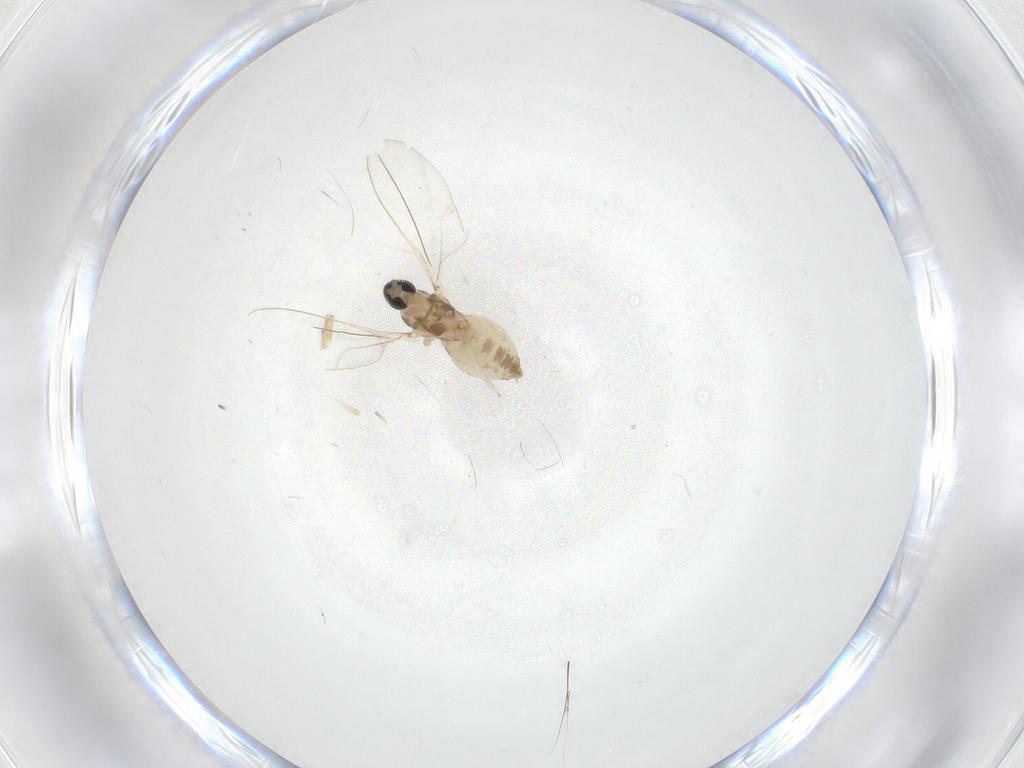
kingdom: Animalia
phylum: Arthropoda
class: Insecta
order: Diptera
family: Cecidomyiidae
